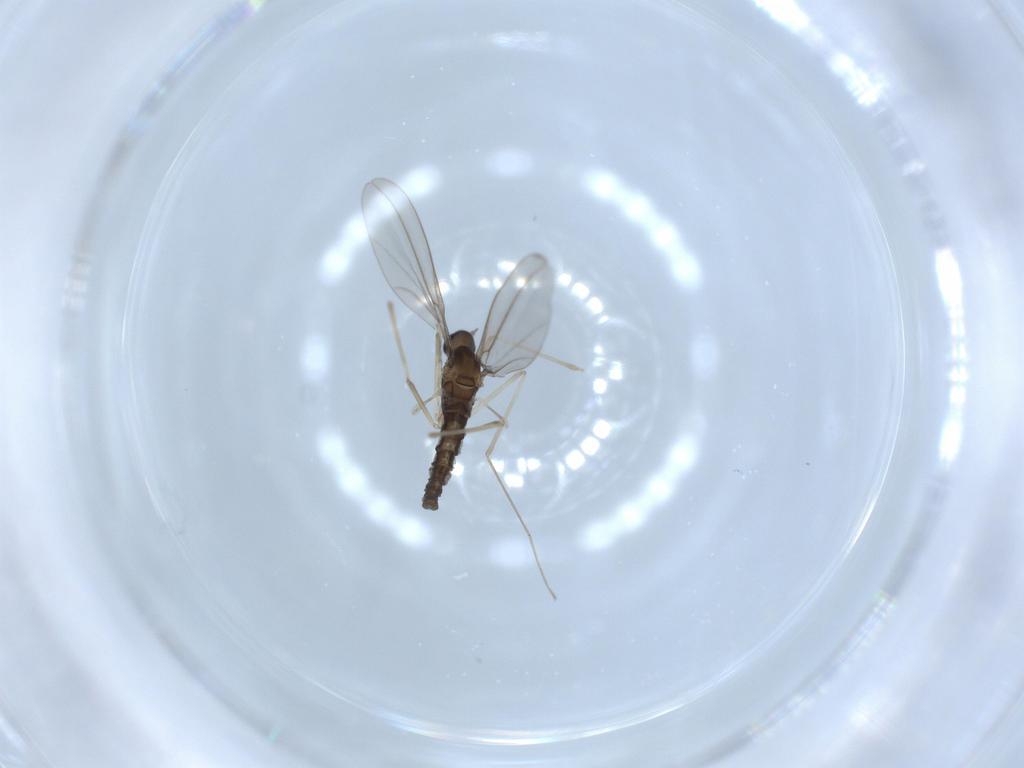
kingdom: Animalia
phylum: Arthropoda
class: Insecta
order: Diptera
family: Cecidomyiidae
